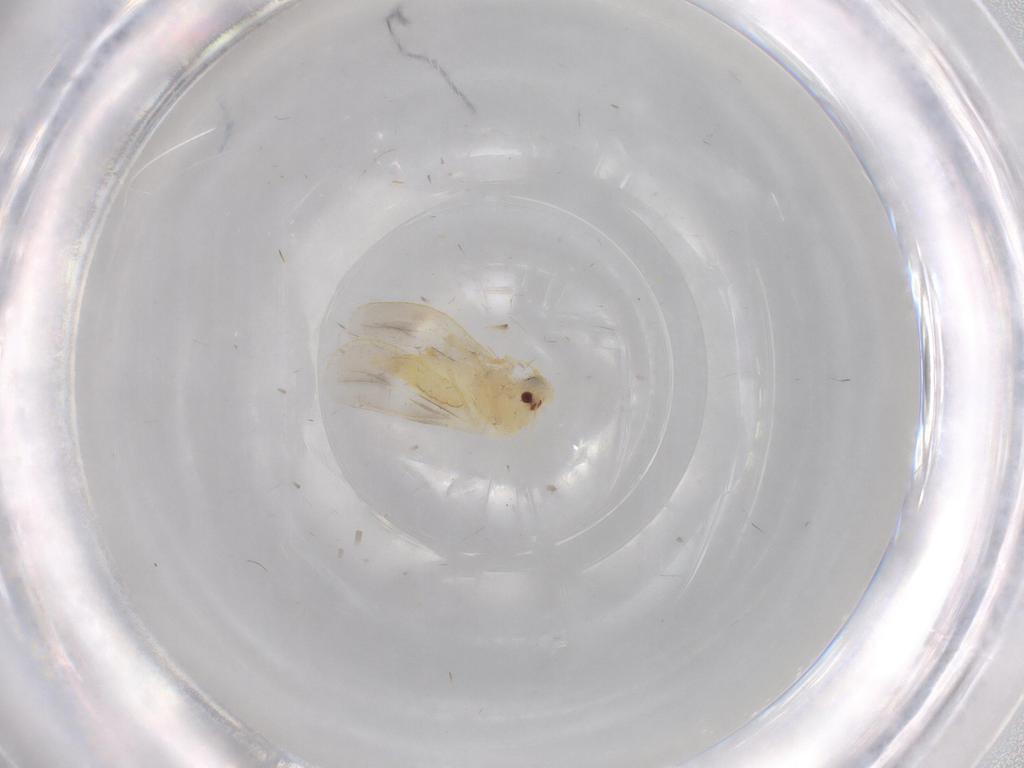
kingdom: Animalia
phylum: Arthropoda
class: Insecta
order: Hemiptera
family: Aleyrodidae
